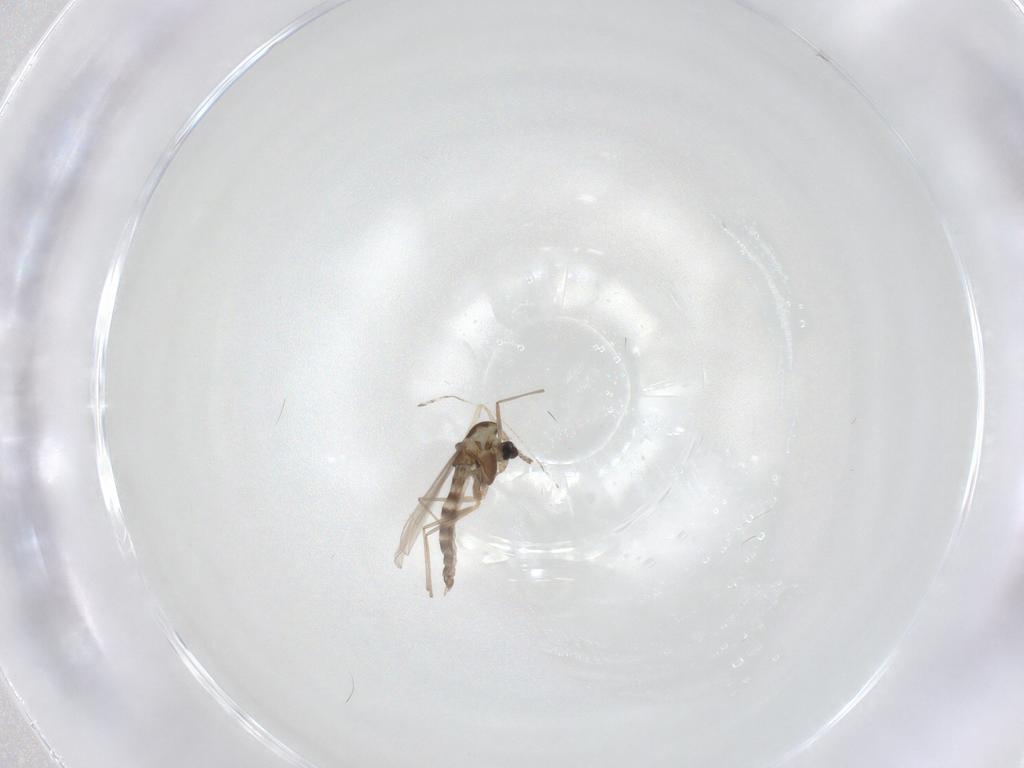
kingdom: Animalia
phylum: Arthropoda
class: Insecta
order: Diptera
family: Chironomidae
